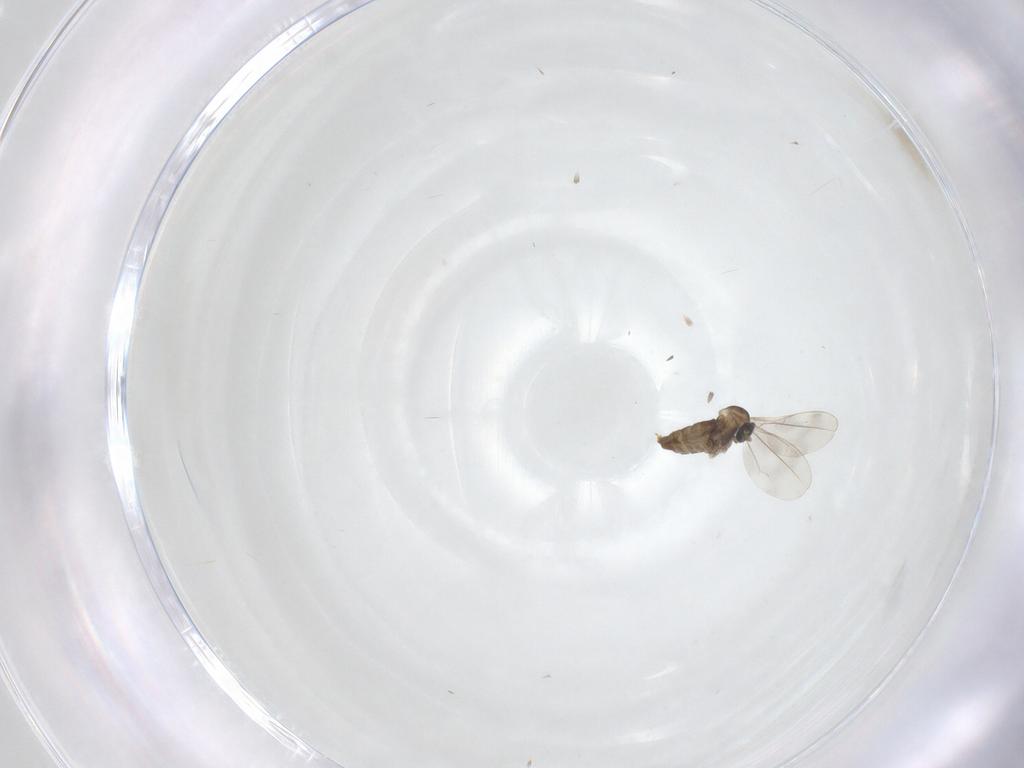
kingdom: Animalia
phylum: Arthropoda
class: Insecta
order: Diptera
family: Cecidomyiidae
